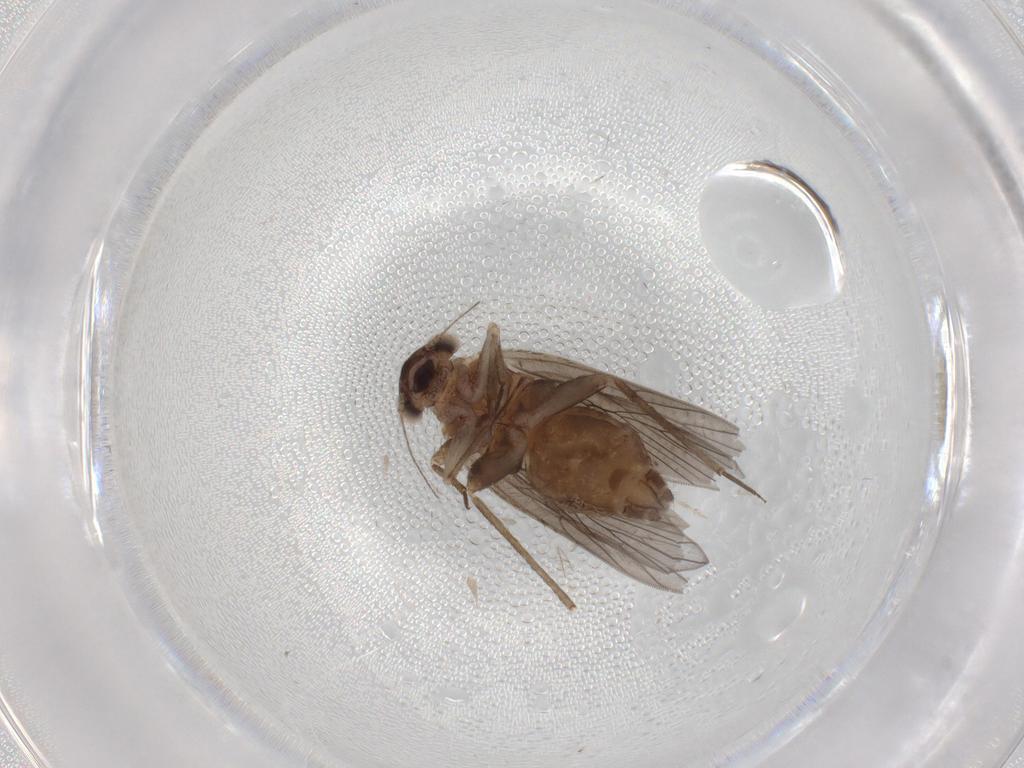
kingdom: Animalia
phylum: Arthropoda
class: Insecta
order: Psocodea
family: Lepidopsocidae
